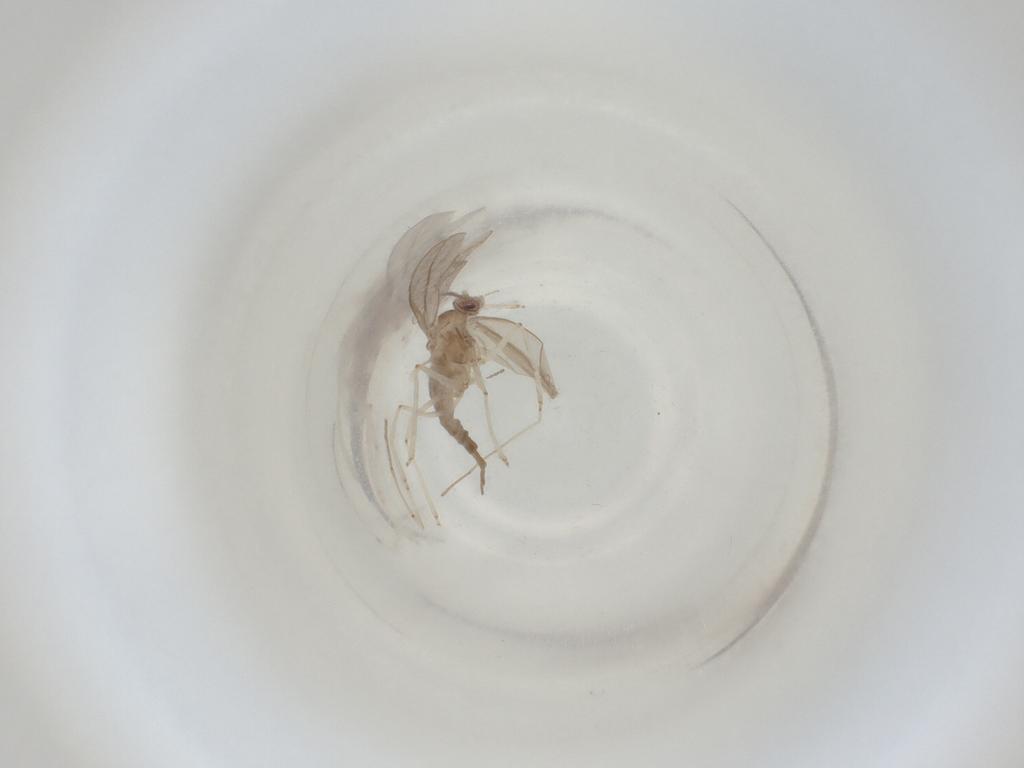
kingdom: Animalia
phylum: Arthropoda
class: Insecta
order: Diptera
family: Cecidomyiidae
